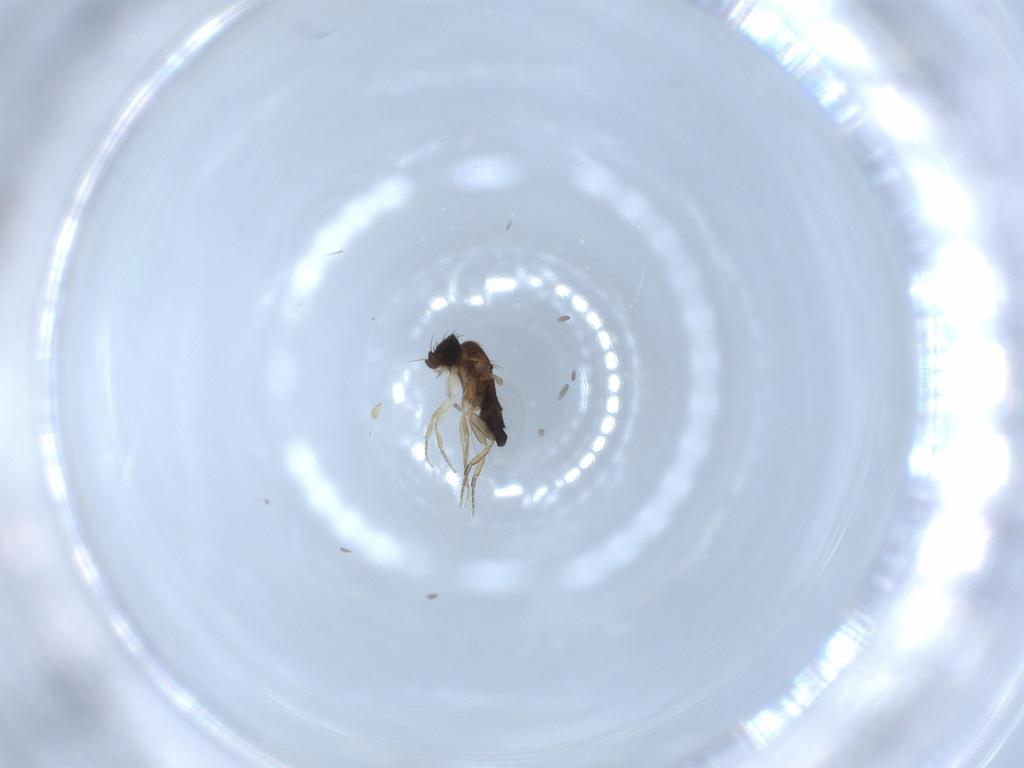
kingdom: Animalia
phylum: Arthropoda
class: Insecta
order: Diptera
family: Phoridae
